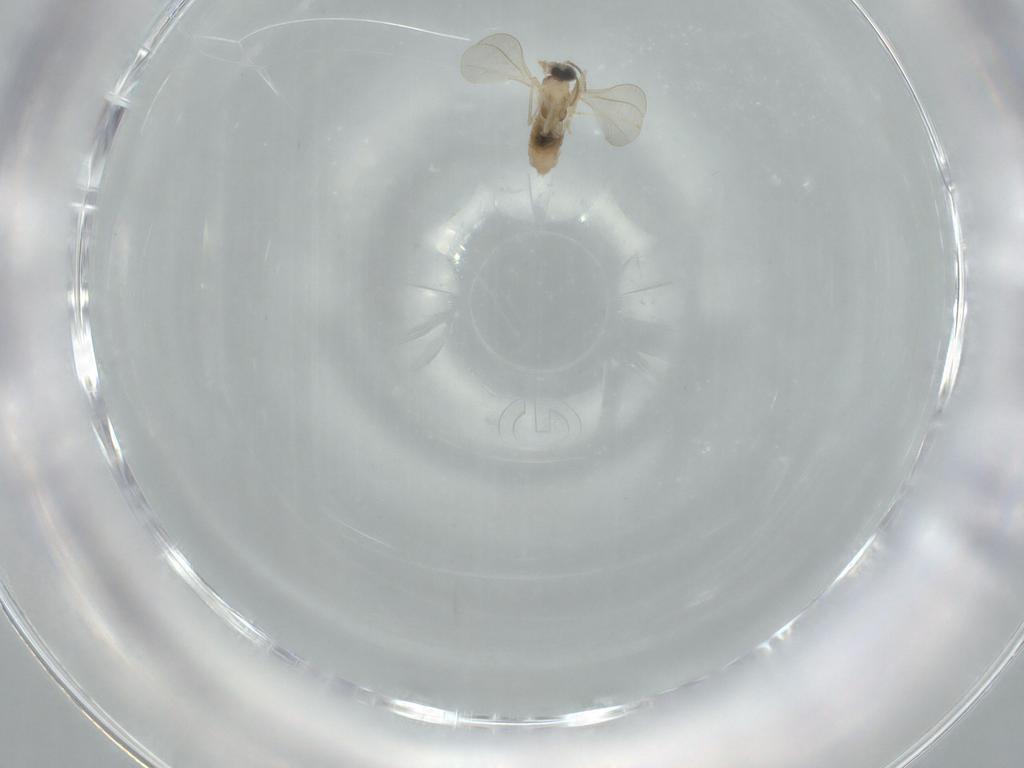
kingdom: Animalia
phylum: Arthropoda
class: Insecta
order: Diptera
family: Cecidomyiidae
